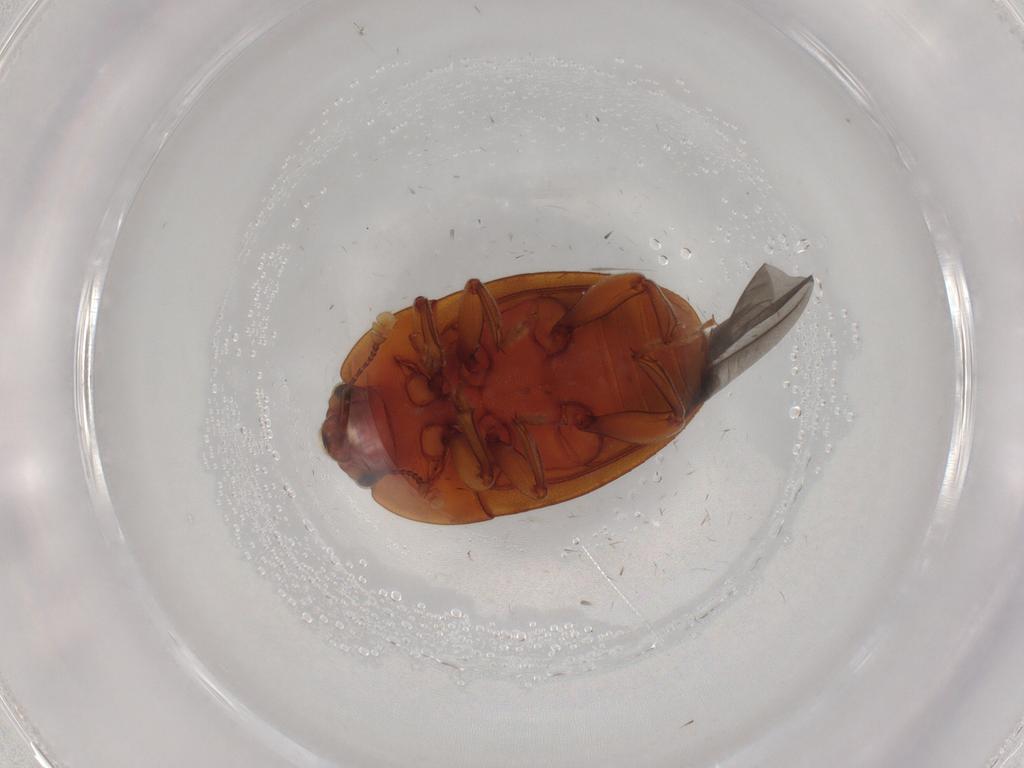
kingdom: Animalia
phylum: Arthropoda
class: Insecta
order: Coleoptera
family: Nitidulidae
